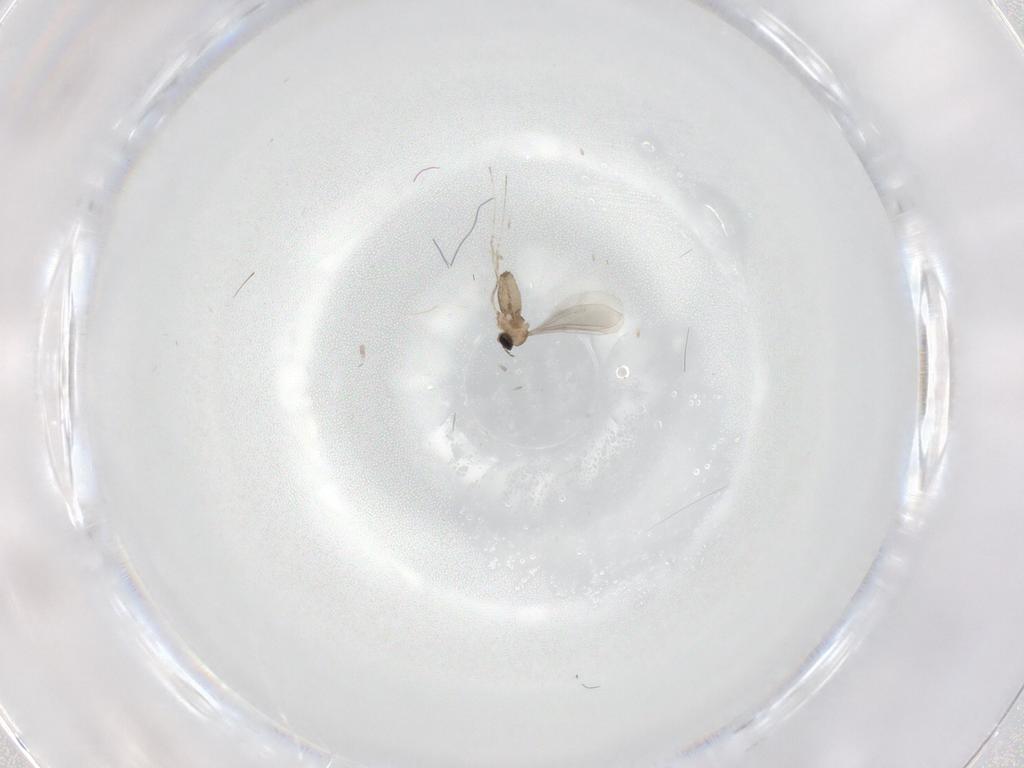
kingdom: Animalia
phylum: Arthropoda
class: Insecta
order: Diptera
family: Cecidomyiidae
